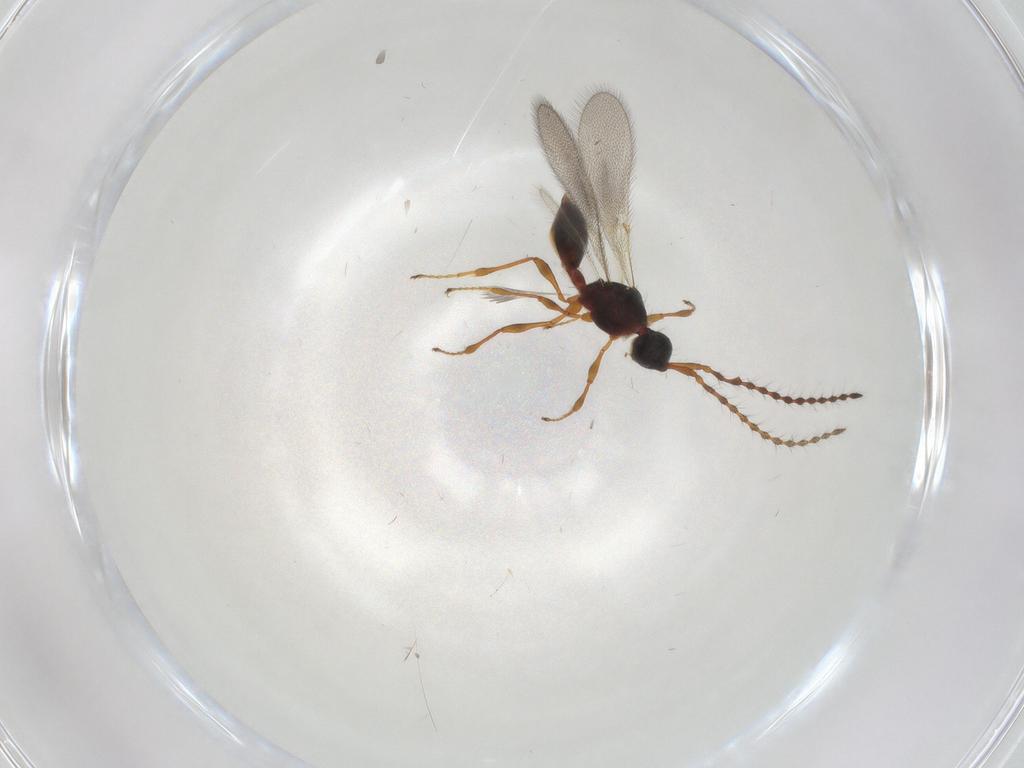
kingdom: Animalia
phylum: Arthropoda
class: Insecta
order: Hymenoptera
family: Diapriidae
